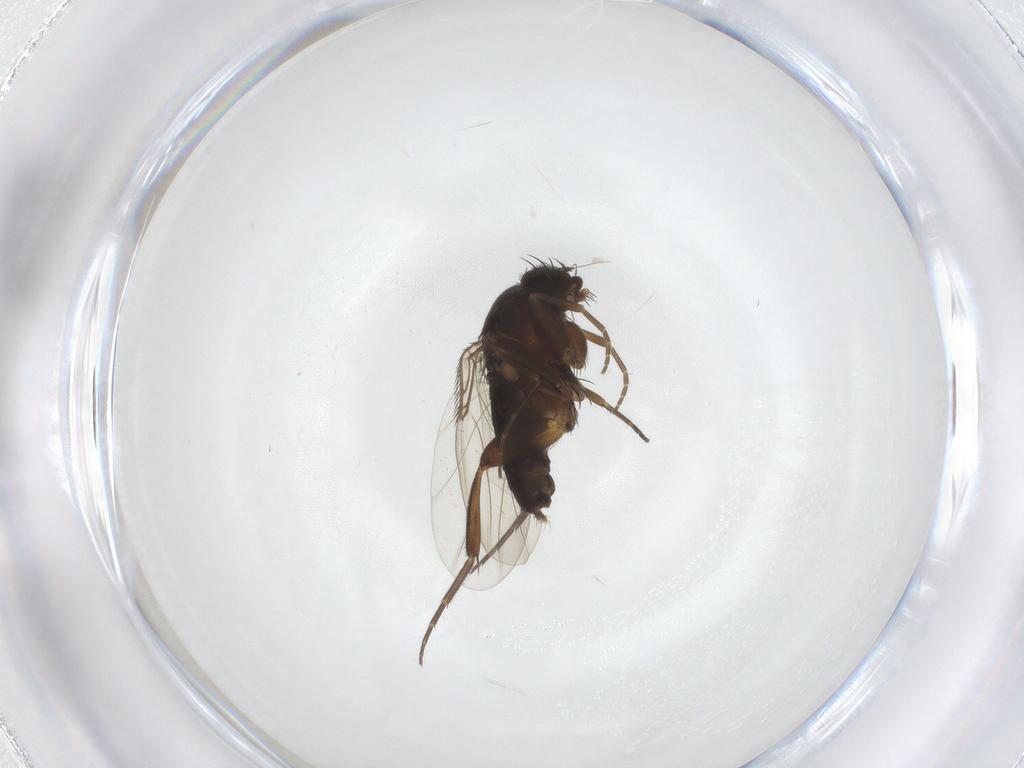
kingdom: Animalia
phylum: Arthropoda
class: Insecta
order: Diptera
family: Phoridae
